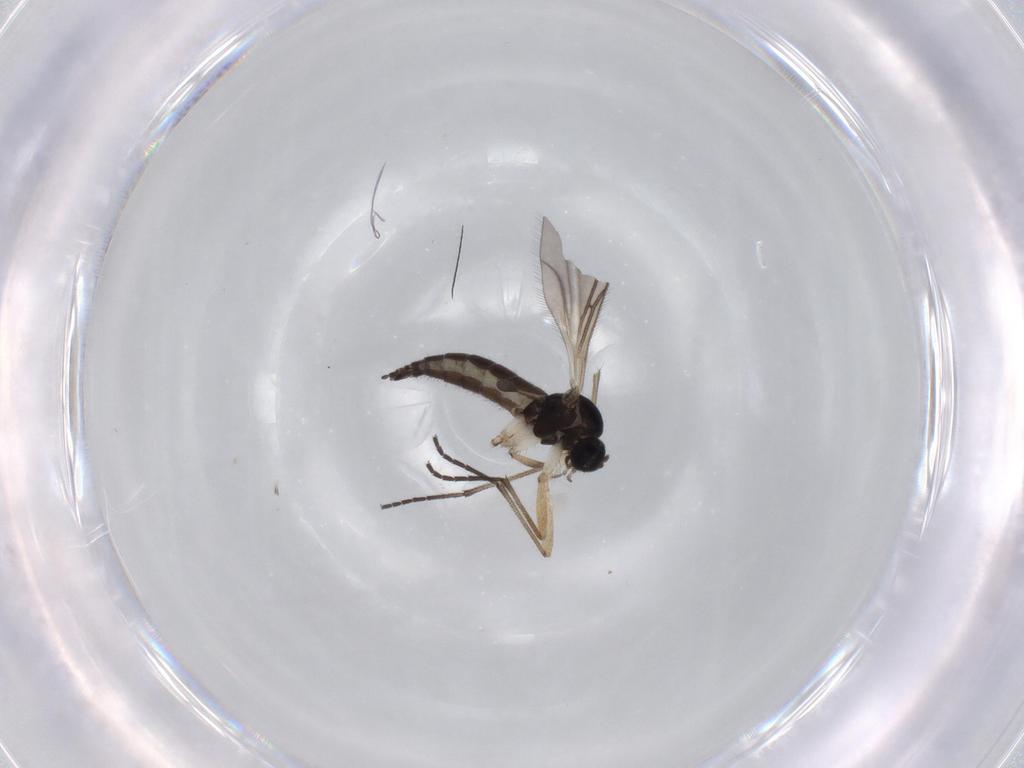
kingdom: Animalia
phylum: Arthropoda
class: Insecta
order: Diptera
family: Sciaridae
